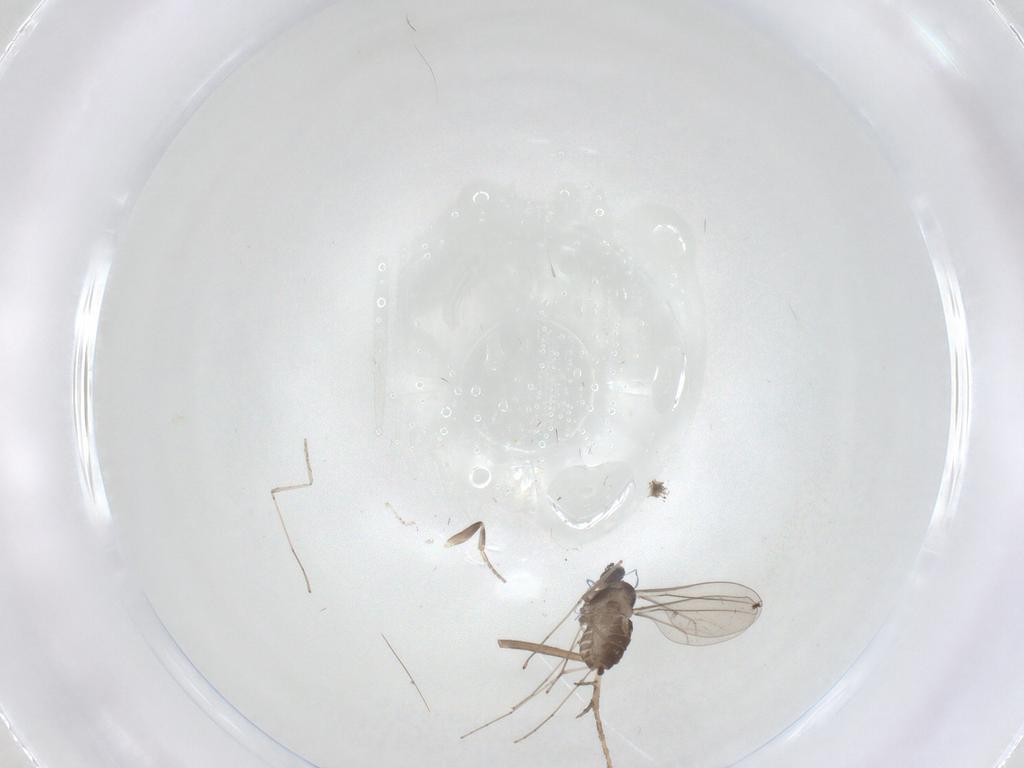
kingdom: Animalia
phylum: Arthropoda
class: Insecta
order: Diptera
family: Cecidomyiidae
